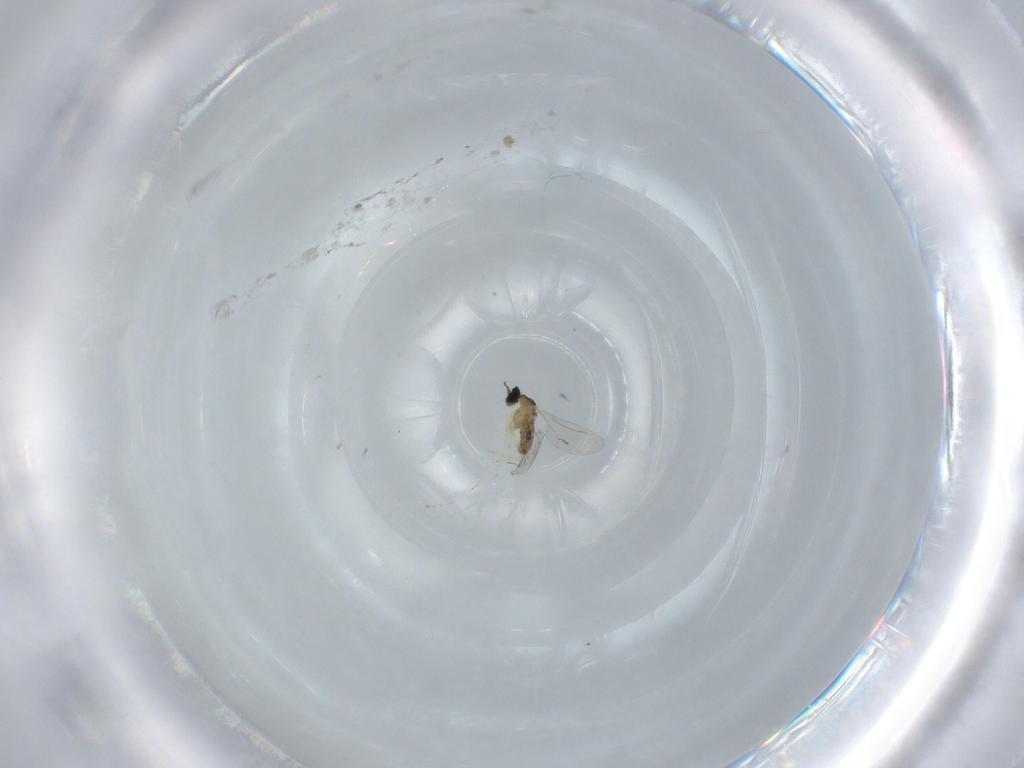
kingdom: Animalia
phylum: Arthropoda
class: Insecta
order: Diptera
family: Cecidomyiidae
